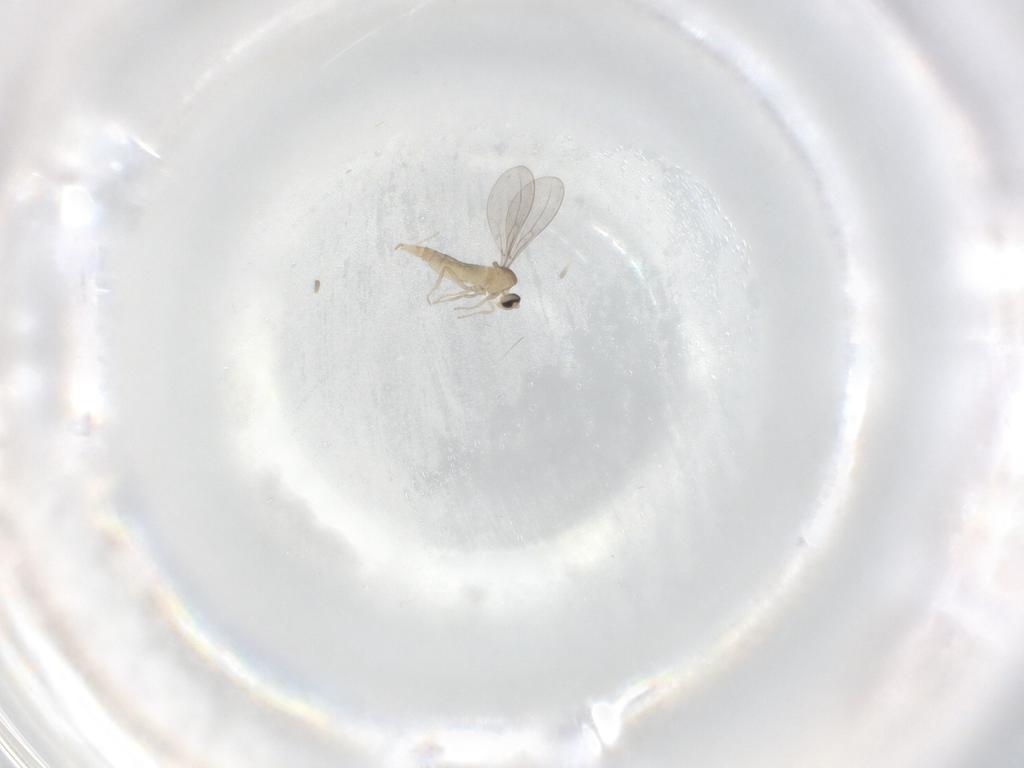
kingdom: Animalia
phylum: Arthropoda
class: Insecta
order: Diptera
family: Cecidomyiidae
